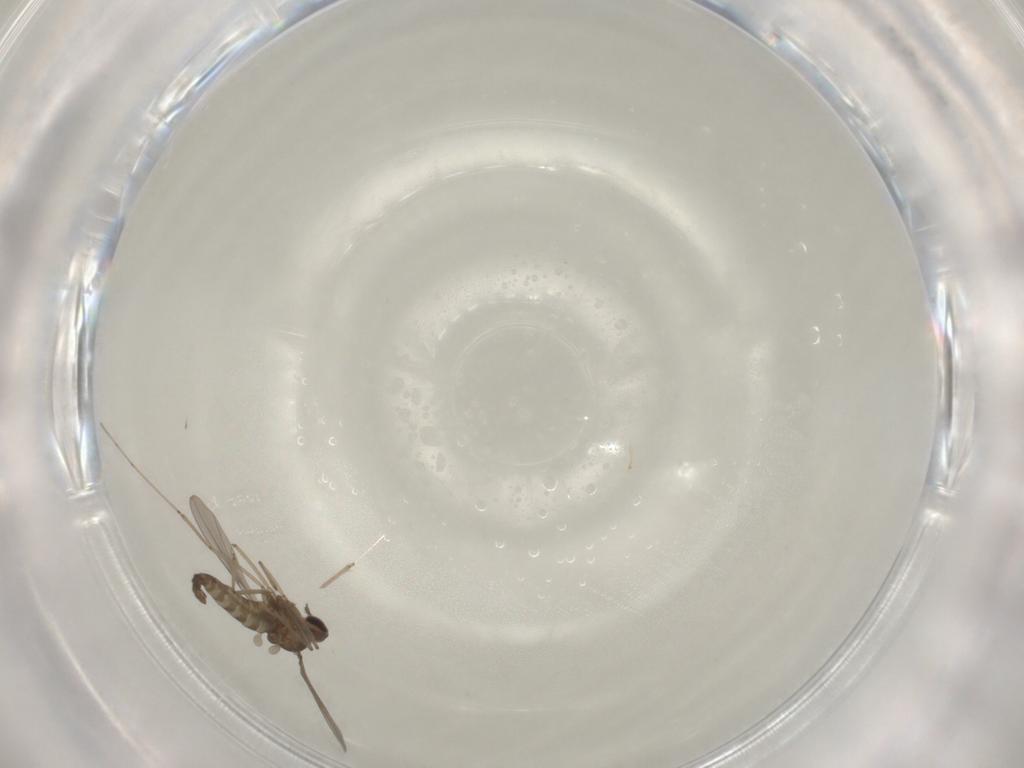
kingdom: Animalia
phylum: Arthropoda
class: Insecta
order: Diptera
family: Cecidomyiidae
